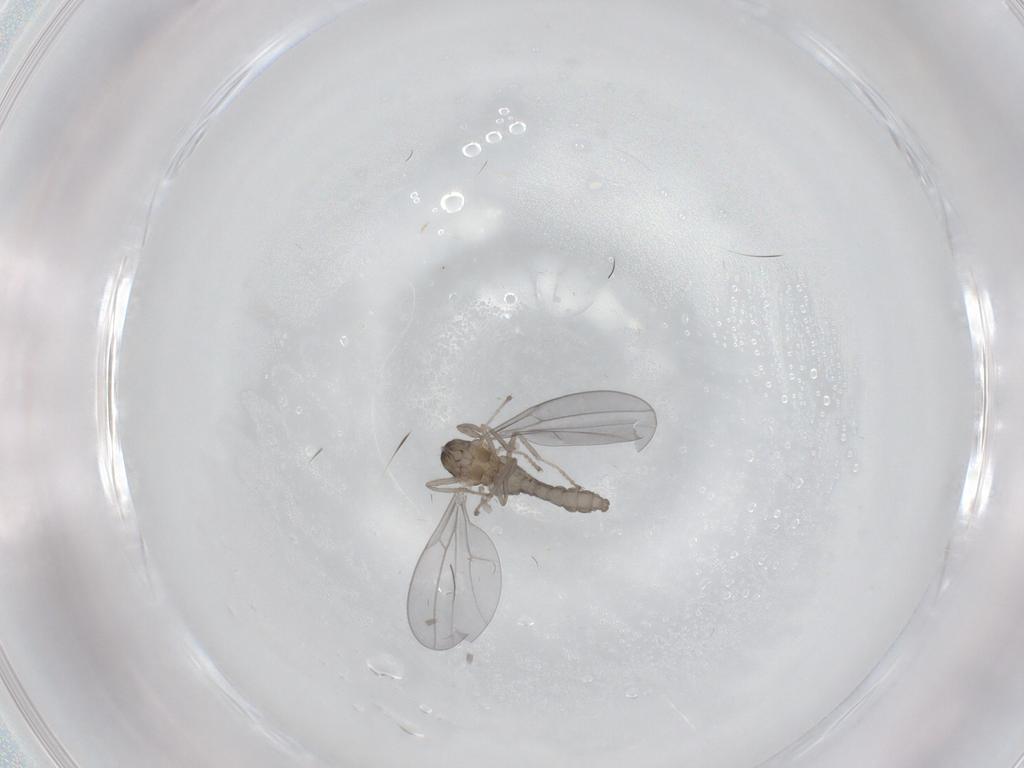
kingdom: Animalia
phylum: Arthropoda
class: Insecta
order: Diptera
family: Cecidomyiidae
